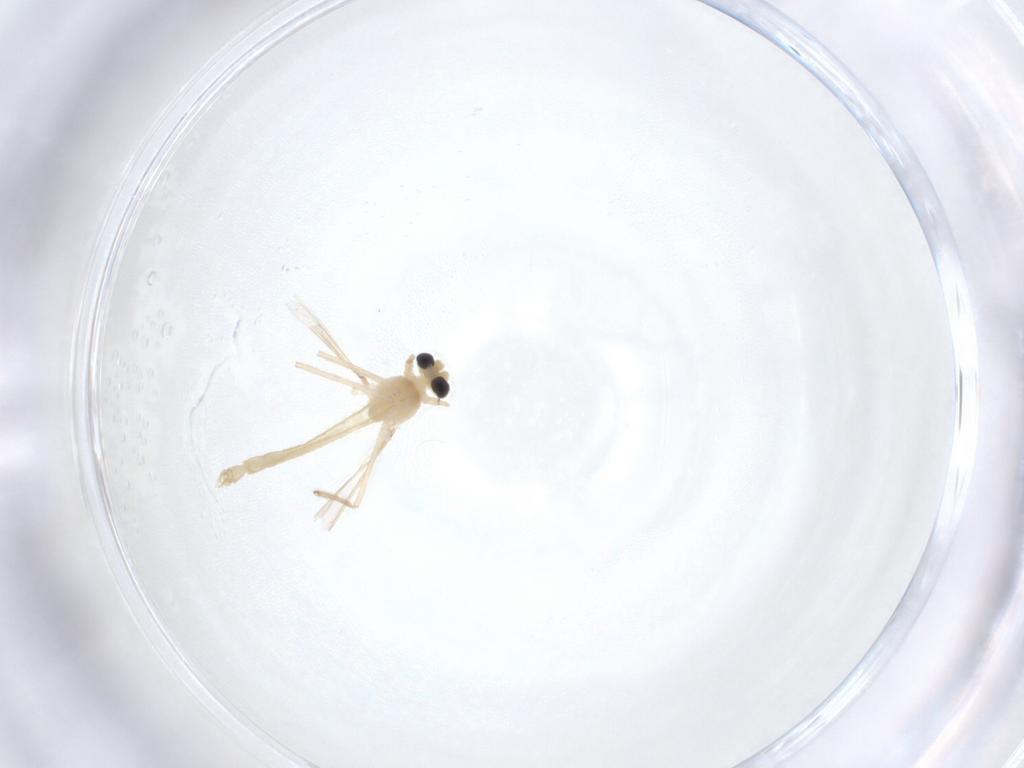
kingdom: Animalia
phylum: Arthropoda
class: Insecta
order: Diptera
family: Chironomidae
